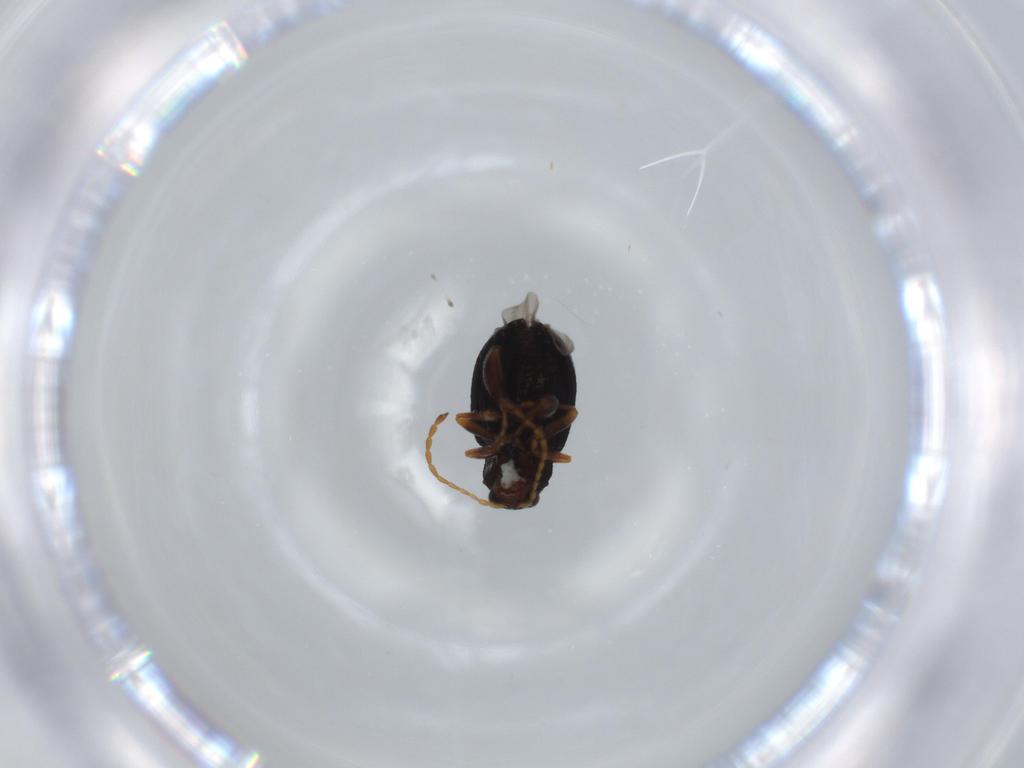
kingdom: Animalia
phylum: Arthropoda
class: Insecta
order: Coleoptera
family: Chrysomelidae
